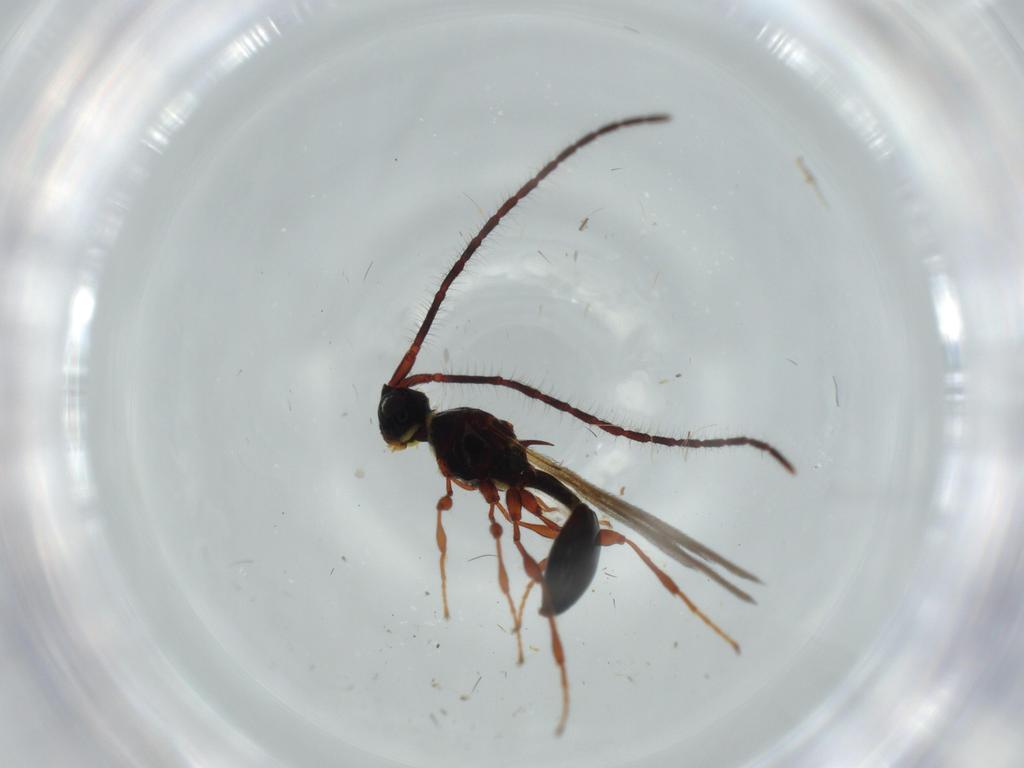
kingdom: Animalia
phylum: Arthropoda
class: Insecta
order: Hymenoptera
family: Diapriidae
